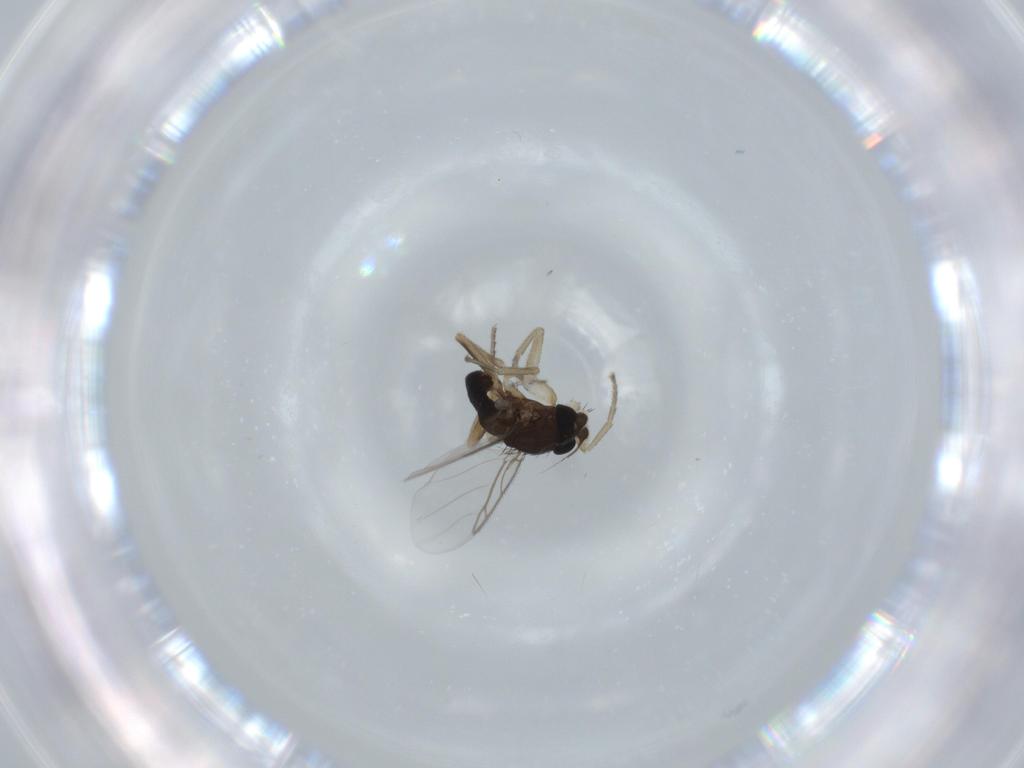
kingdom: Animalia
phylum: Arthropoda
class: Insecta
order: Diptera
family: Phoridae
